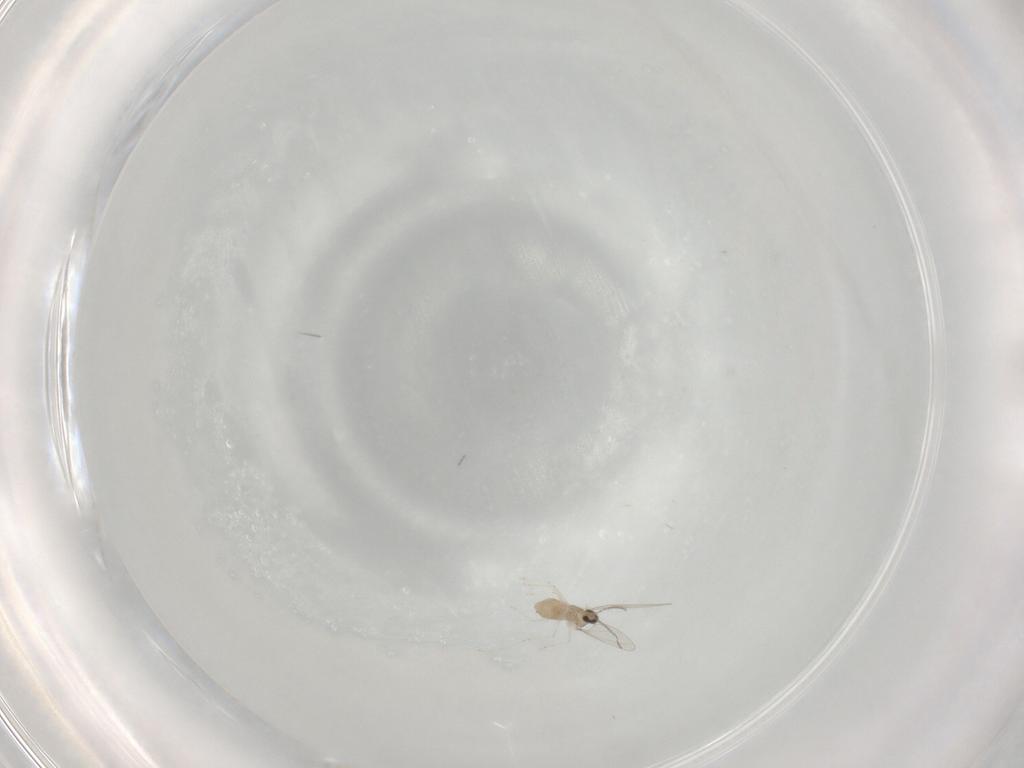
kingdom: Animalia
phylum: Arthropoda
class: Insecta
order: Diptera
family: Cecidomyiidae
